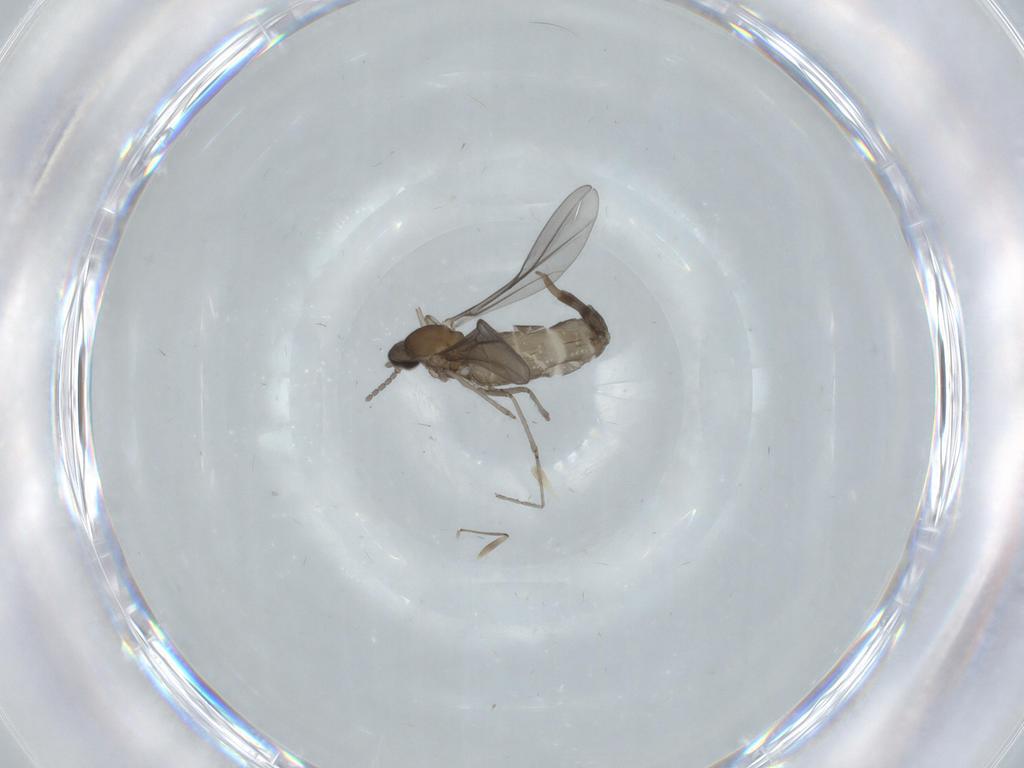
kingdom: Animalia
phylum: Arthropoda
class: Insecta
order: Diptera
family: Chironomidae
